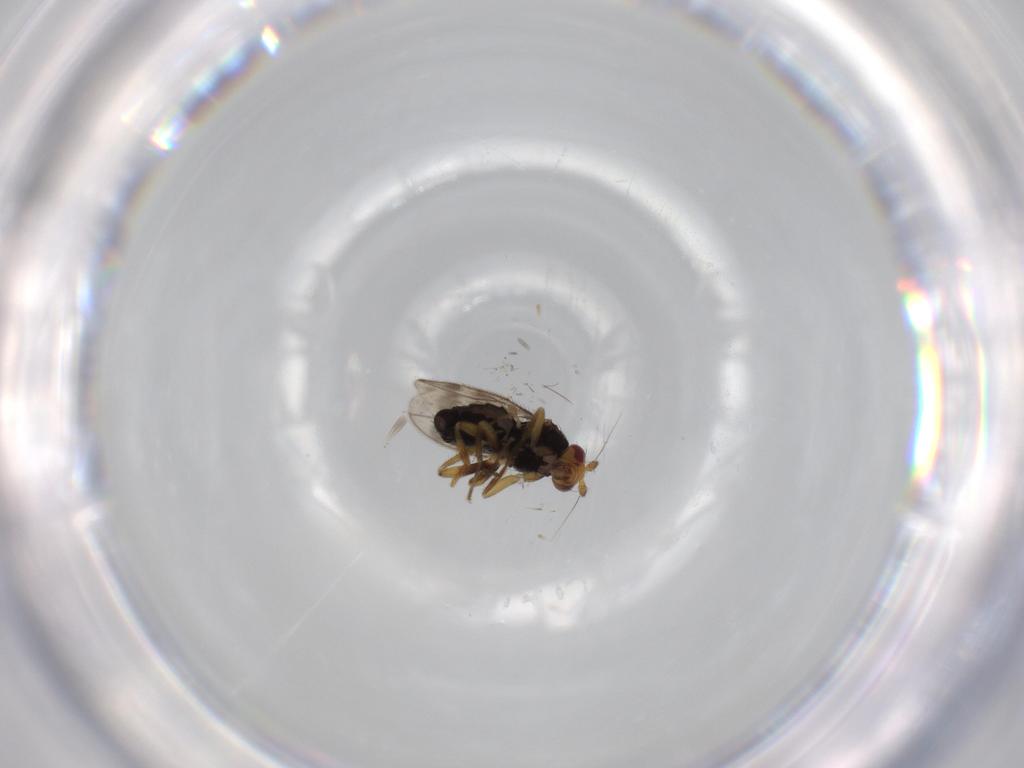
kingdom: Animalia
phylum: Arthropoda
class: Insecta
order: Diptera
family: Sphaeroceridae
